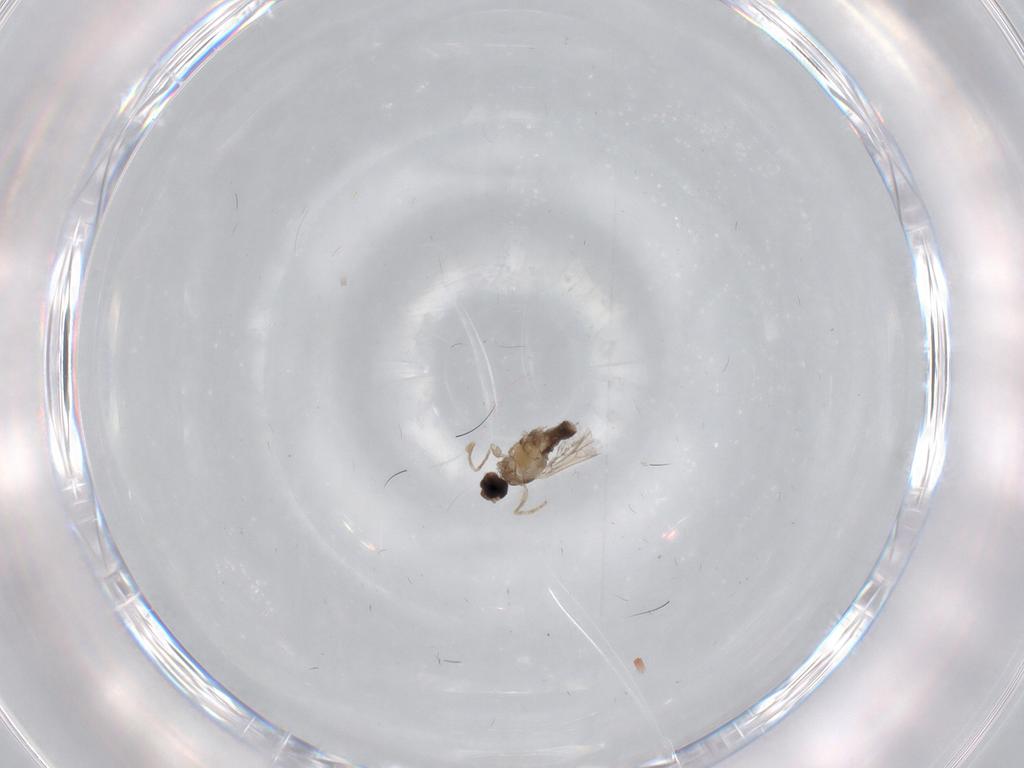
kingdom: Animalia
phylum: Arthropoda
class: Insecta
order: Diptera
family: Cecidomyiidae
